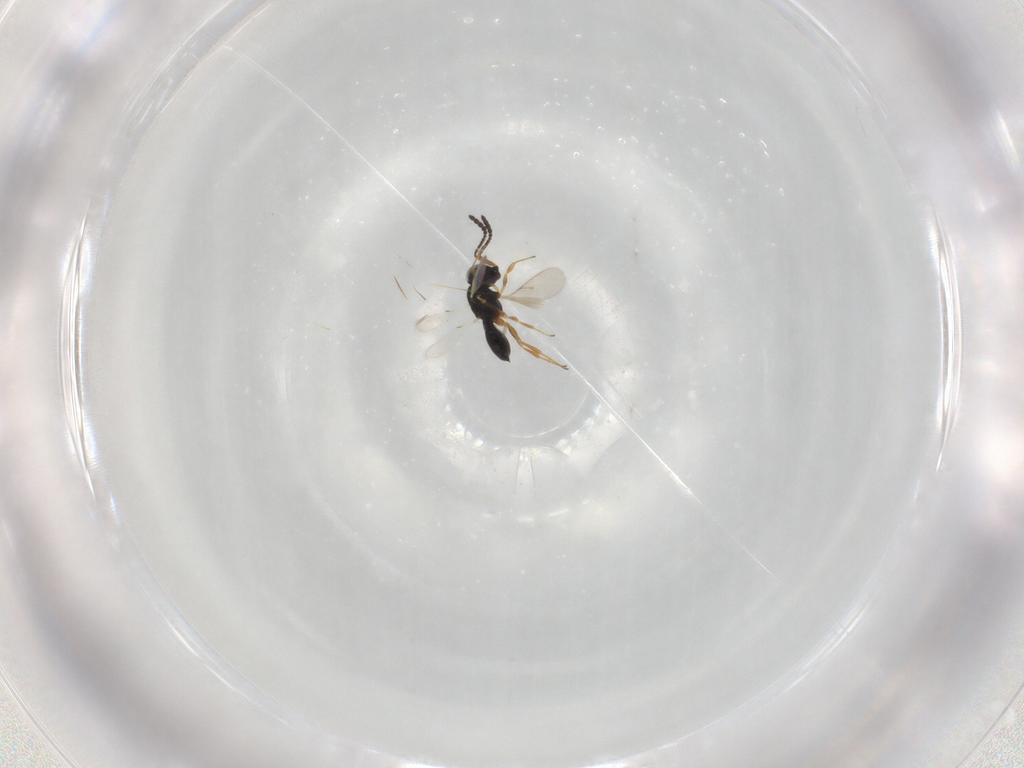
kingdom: Animalia
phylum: Arthropoda
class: Insecta
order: Hymenoptera
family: Scelionidae
